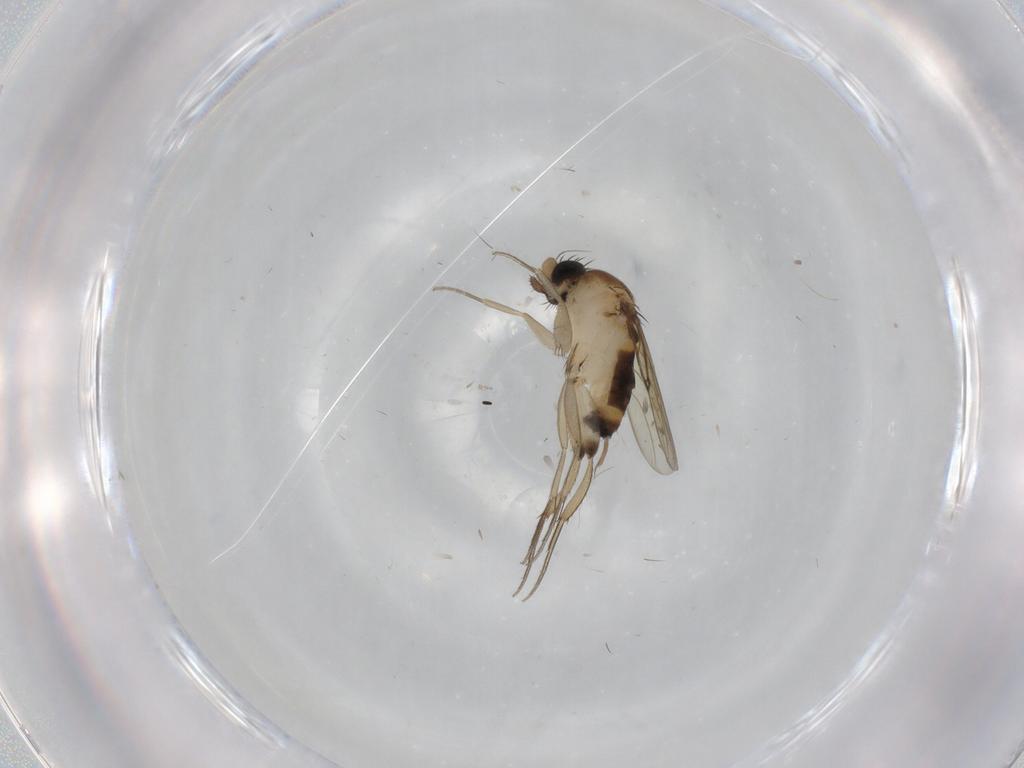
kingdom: Animalia
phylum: Arthropoda
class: Insecta
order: Diptera
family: Phoridae
